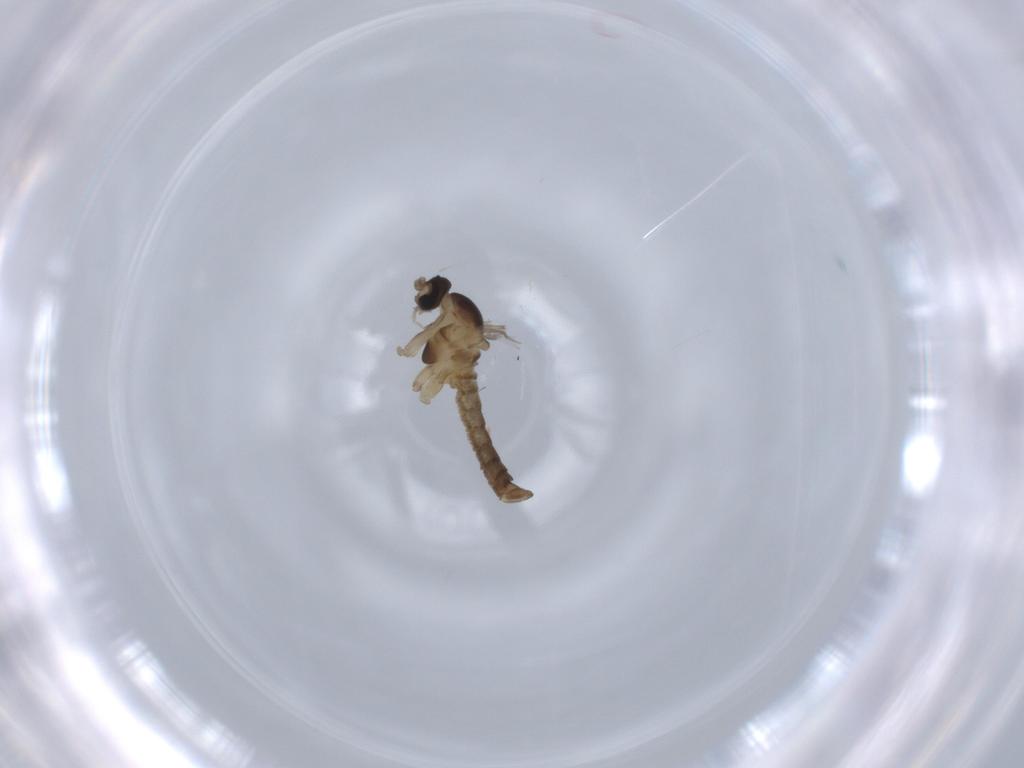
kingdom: Animalia
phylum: Arthropoda
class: Insecta
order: Diptera
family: Cecidomyiidae
